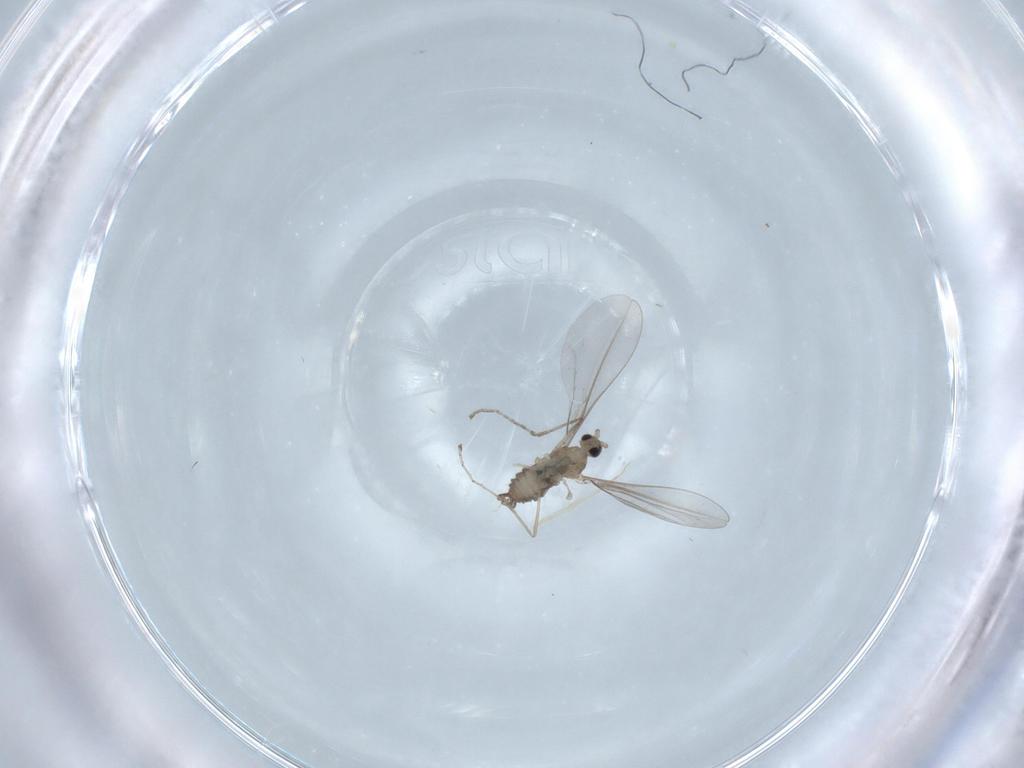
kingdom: Animalia
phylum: Arthropoda
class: Insecta
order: Diptera
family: Cecidomyiidae
